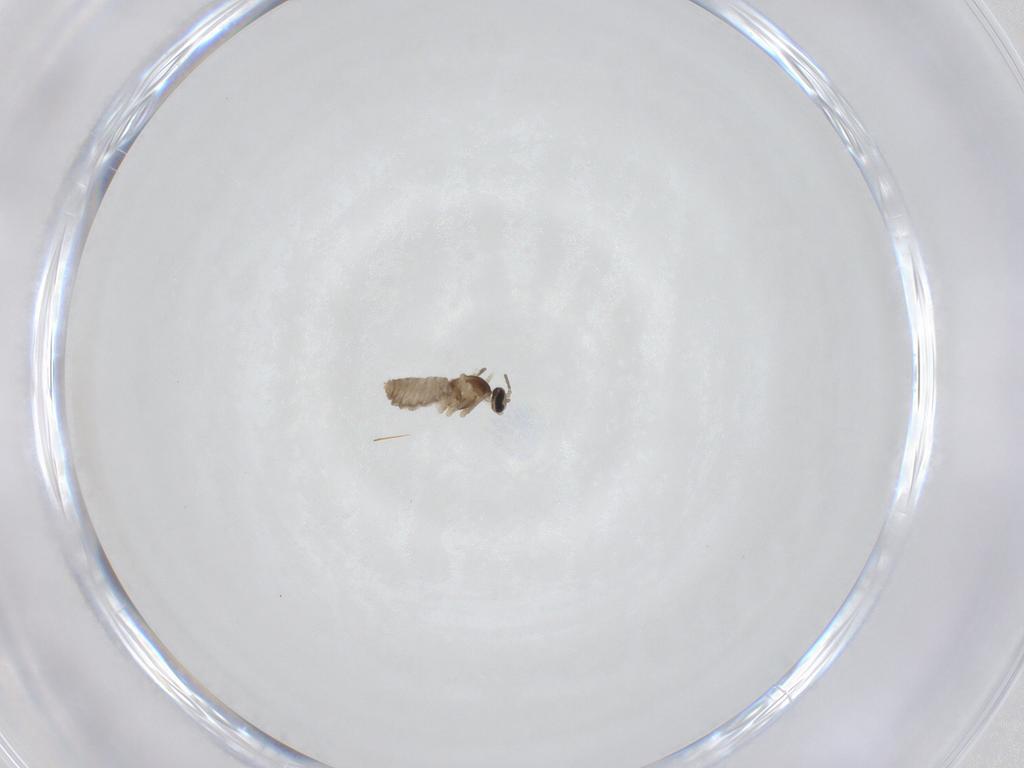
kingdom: Animalia
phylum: Arthropoda
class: Insecta
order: Diptera
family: Cecidomyiidae
